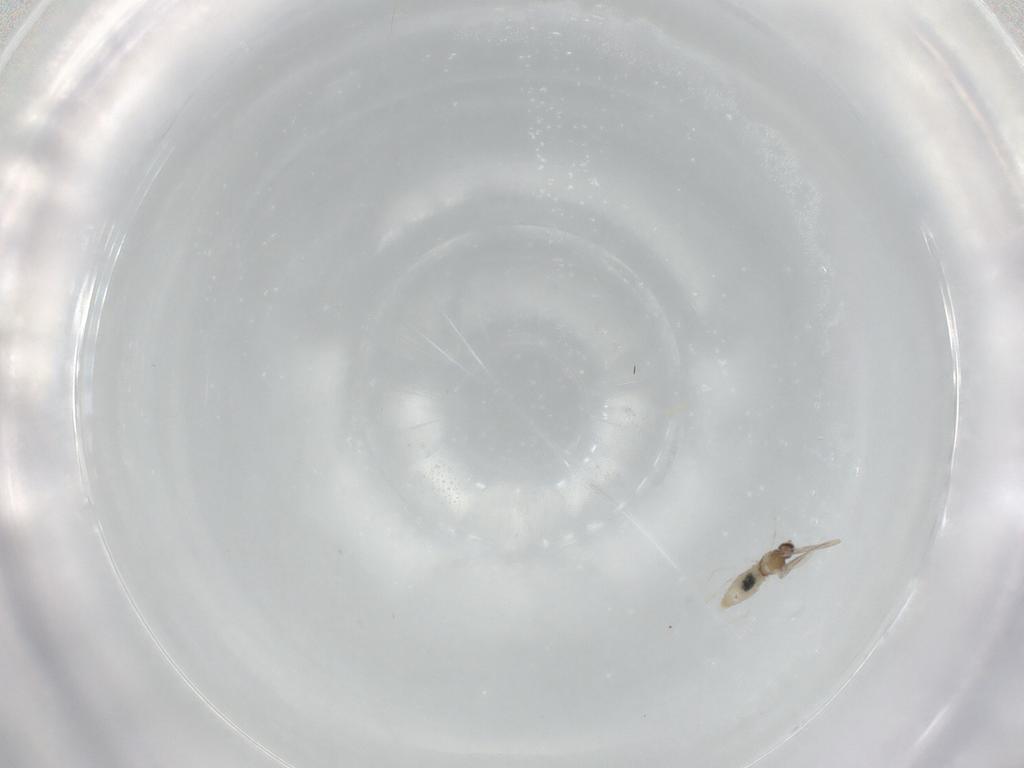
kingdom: Animalia
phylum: Arthropoda
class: Insecta
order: Diptera
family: Cecidomyiidae
